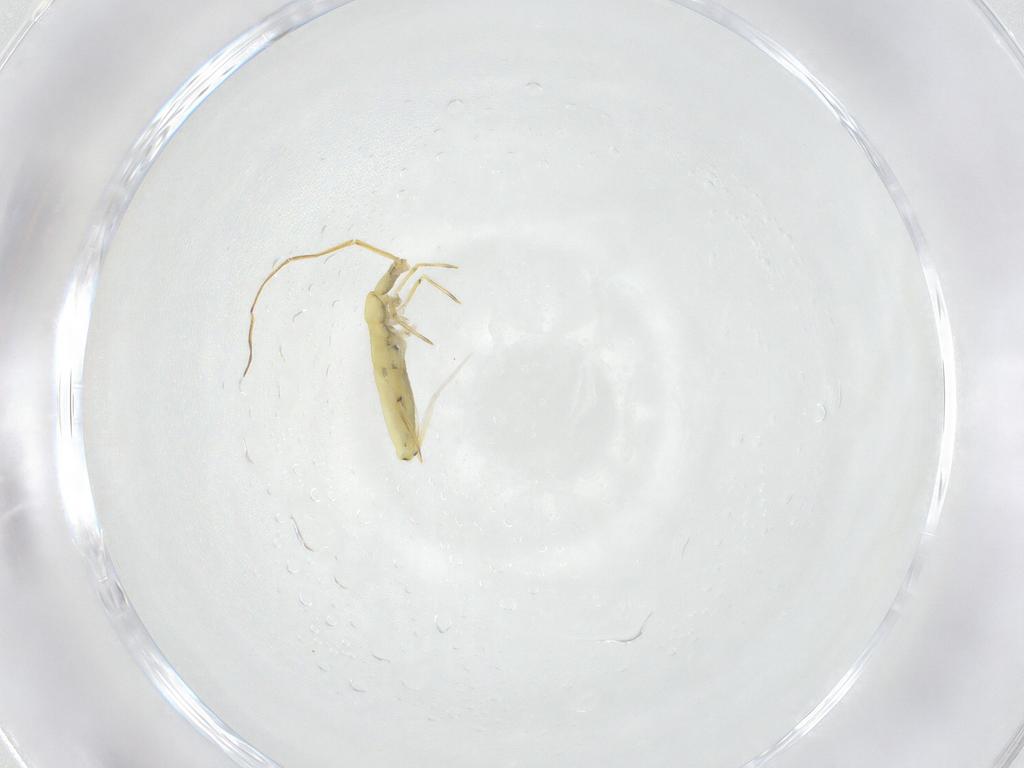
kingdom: Animalia
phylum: Arthropoda
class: Collembola
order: Entomobryomorpha
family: Entomobryidae
